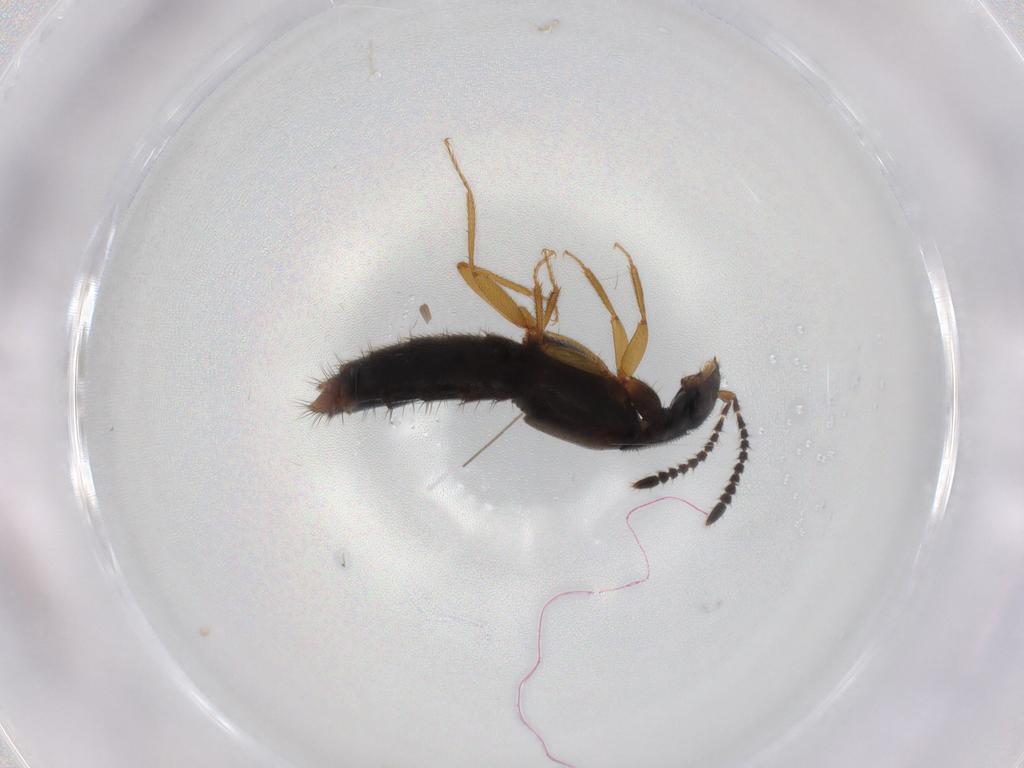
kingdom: Animalia
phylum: Arthropoda
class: Insecta
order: Coleoptera
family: Staphylinidae
